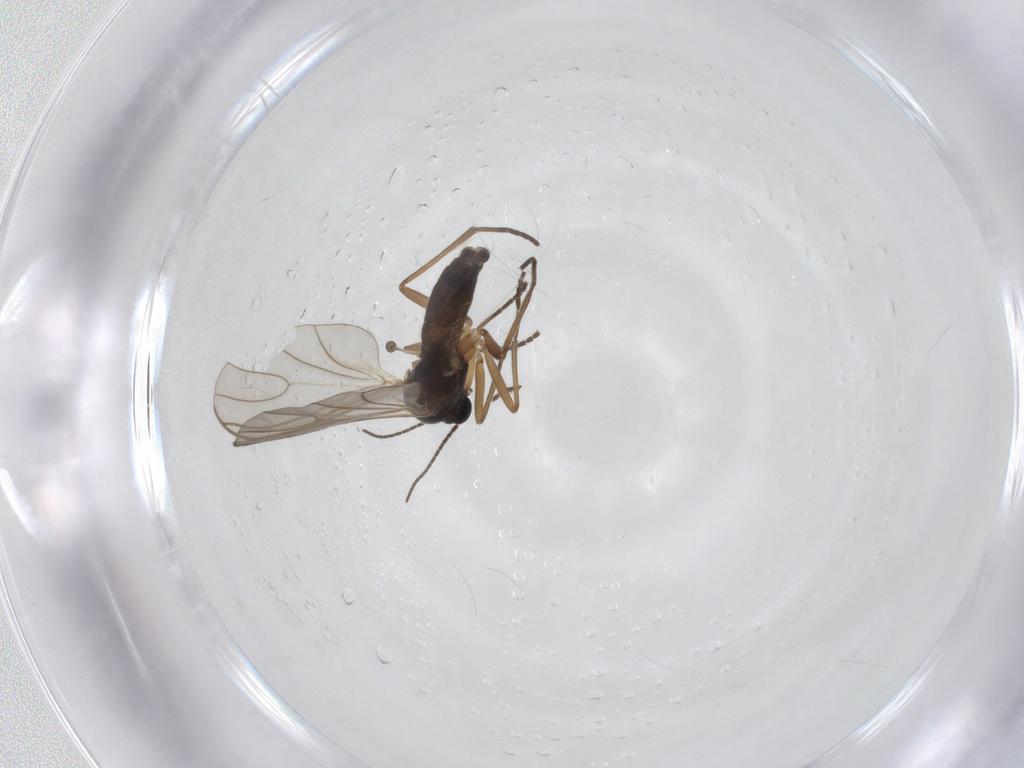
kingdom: Animalia
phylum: Arthropoda
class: Insecta
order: Diptera
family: Sciaridae
